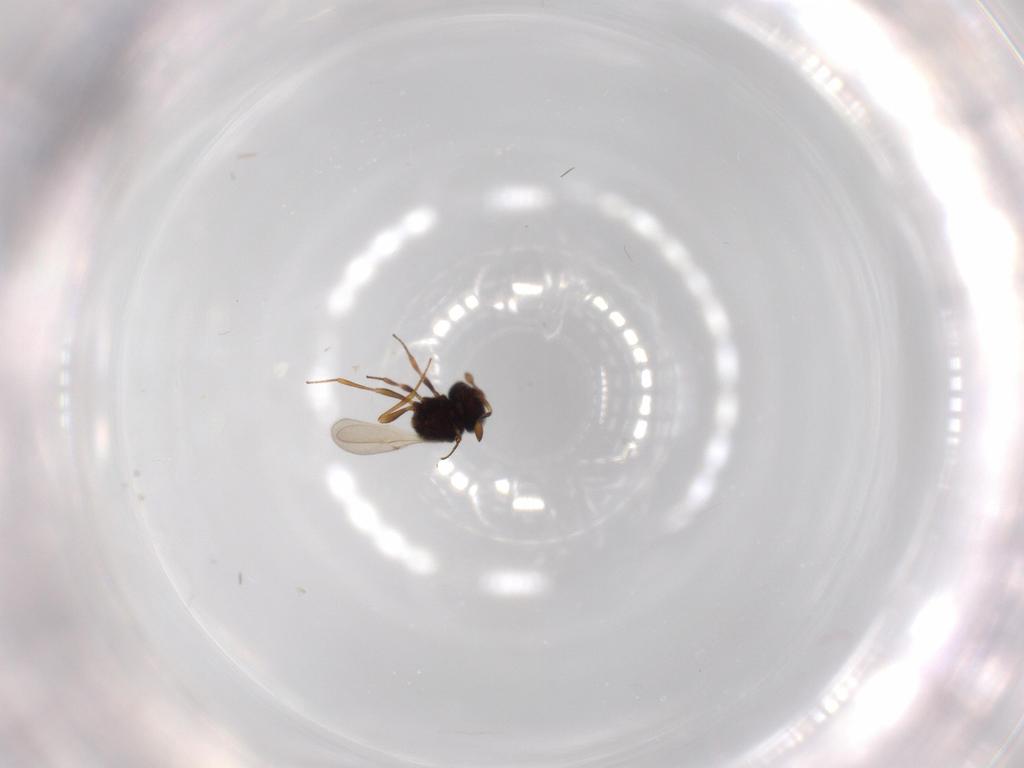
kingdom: Animalia
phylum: Arthropoda
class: Insecta
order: Hymenoptera
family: Scelionidae
